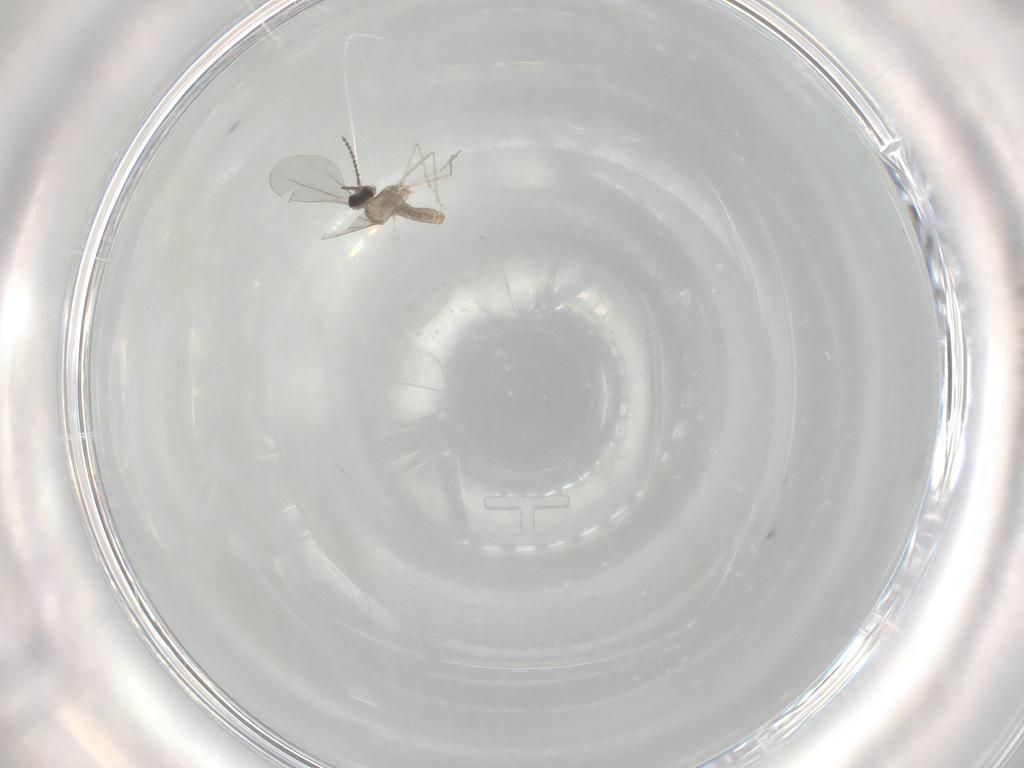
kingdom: Animalia
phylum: Arthropoda
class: Insecta
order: Diptera
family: Cecidomyiidae
